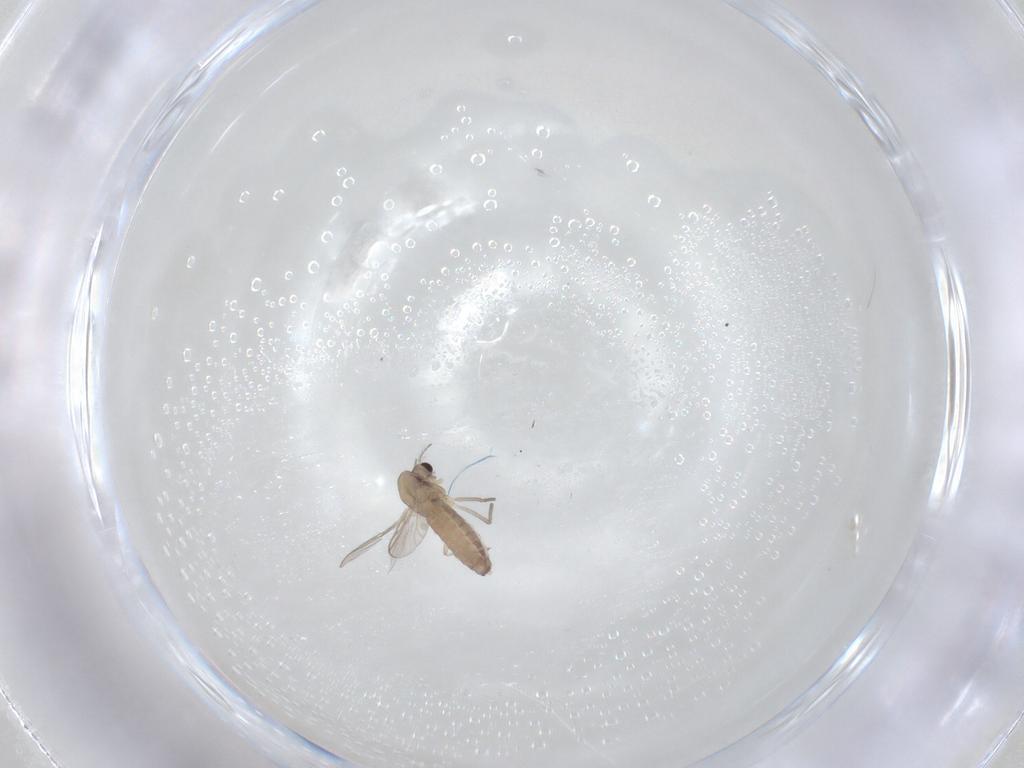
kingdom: Animalia
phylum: Arthropoda
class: Insecta
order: Diptera
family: Chironomidae
